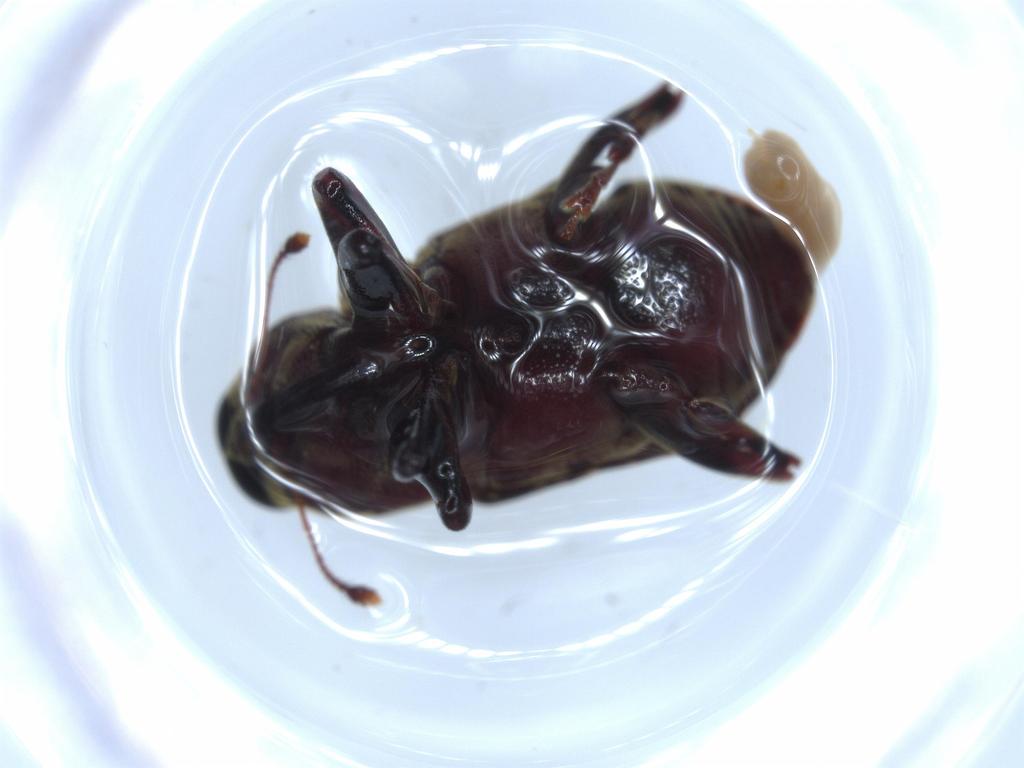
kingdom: Animalia
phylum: Arthropoda
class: Insecta
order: Coleoptera
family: Curculionidae
